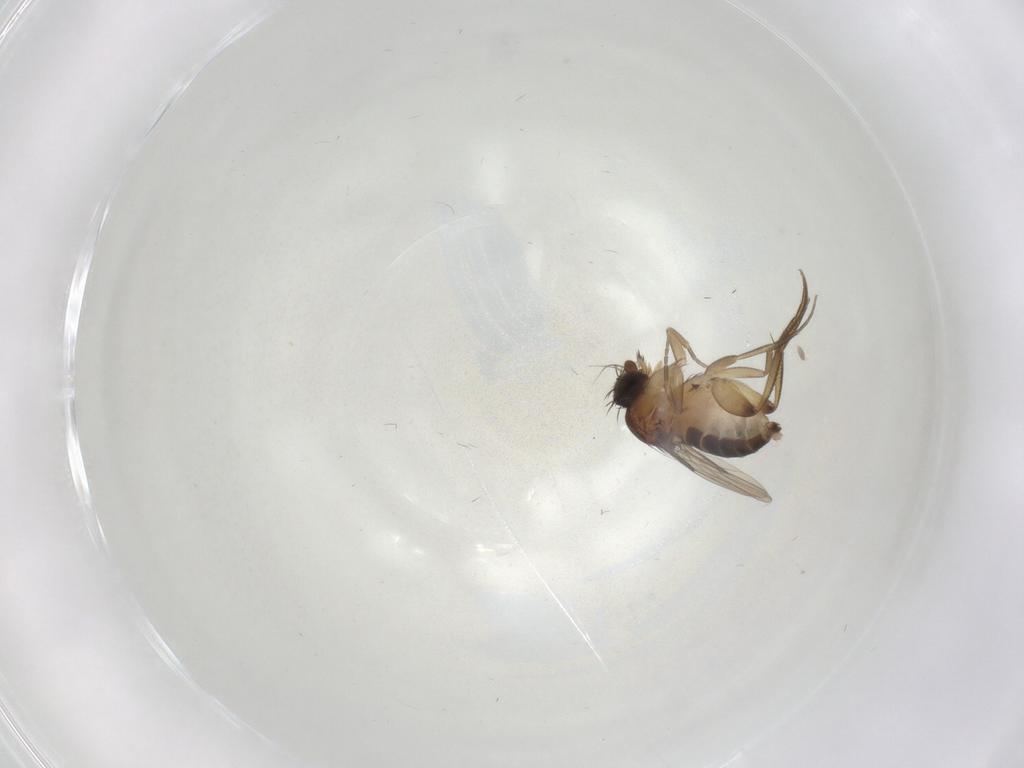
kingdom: Animalia
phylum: Arthropoda
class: Insecta
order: Diptera
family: Phoridae
